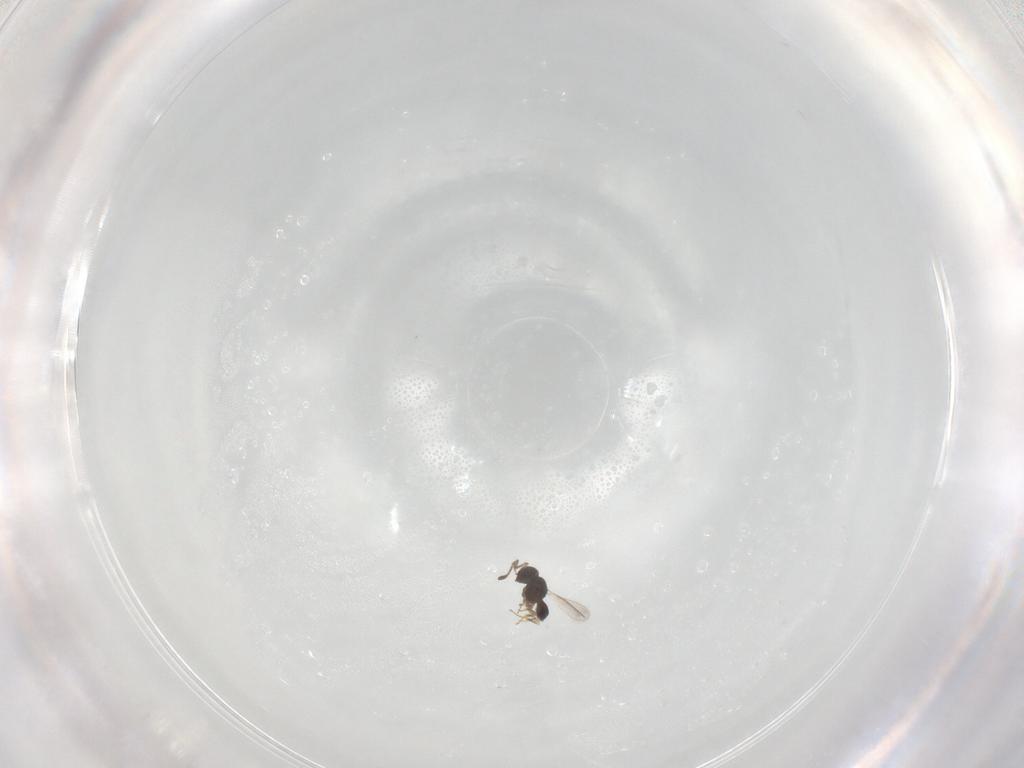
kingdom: Animalia
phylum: Arthropoda
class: Insecta
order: Hymenoptera
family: Scelionidae
